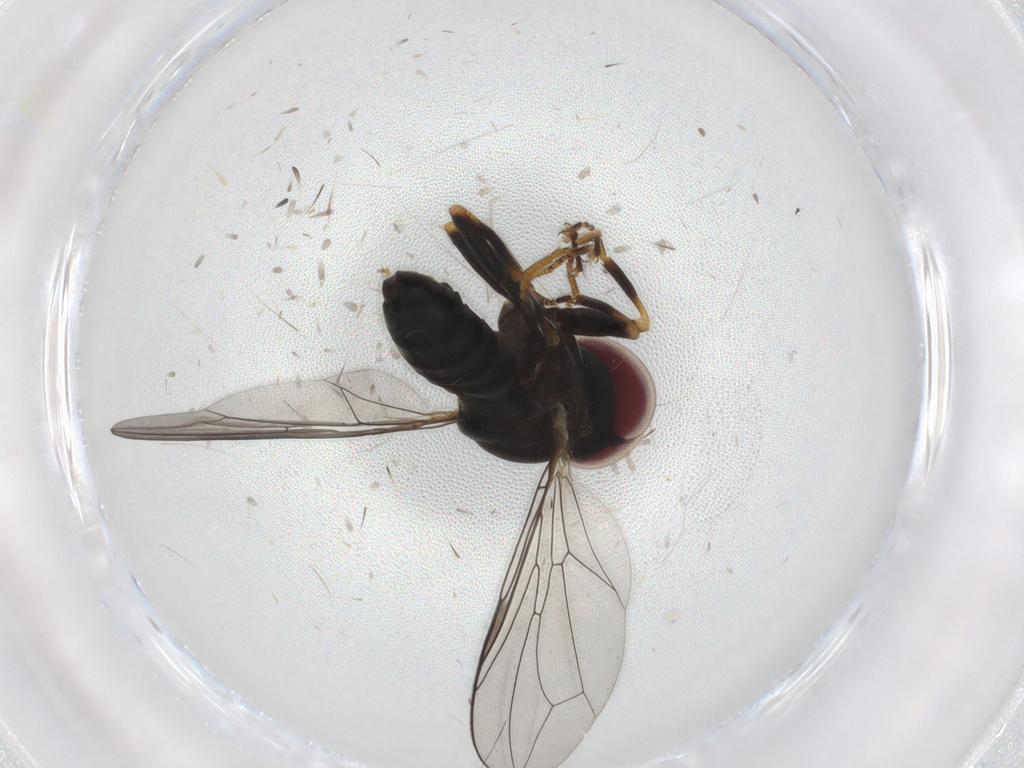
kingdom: Animalia
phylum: Arthropoda
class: Insecta
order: Diptera
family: Pipunculidae
